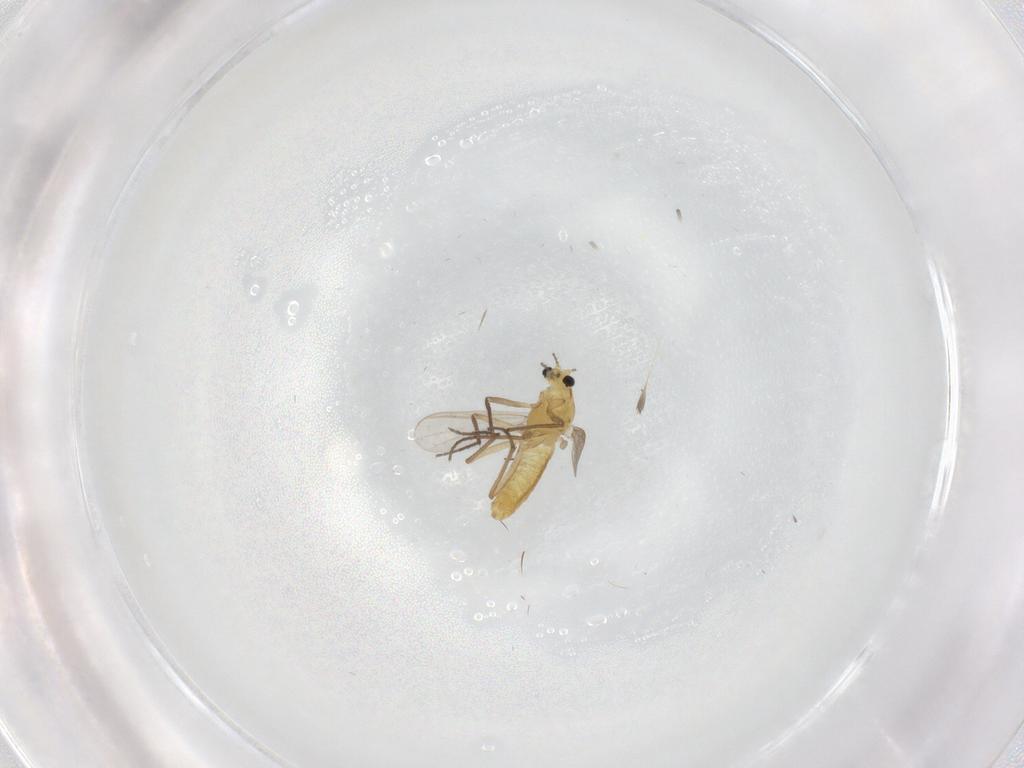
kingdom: Animalia
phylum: Arthropoda
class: Insecta
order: Diptera
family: Chironomidae
